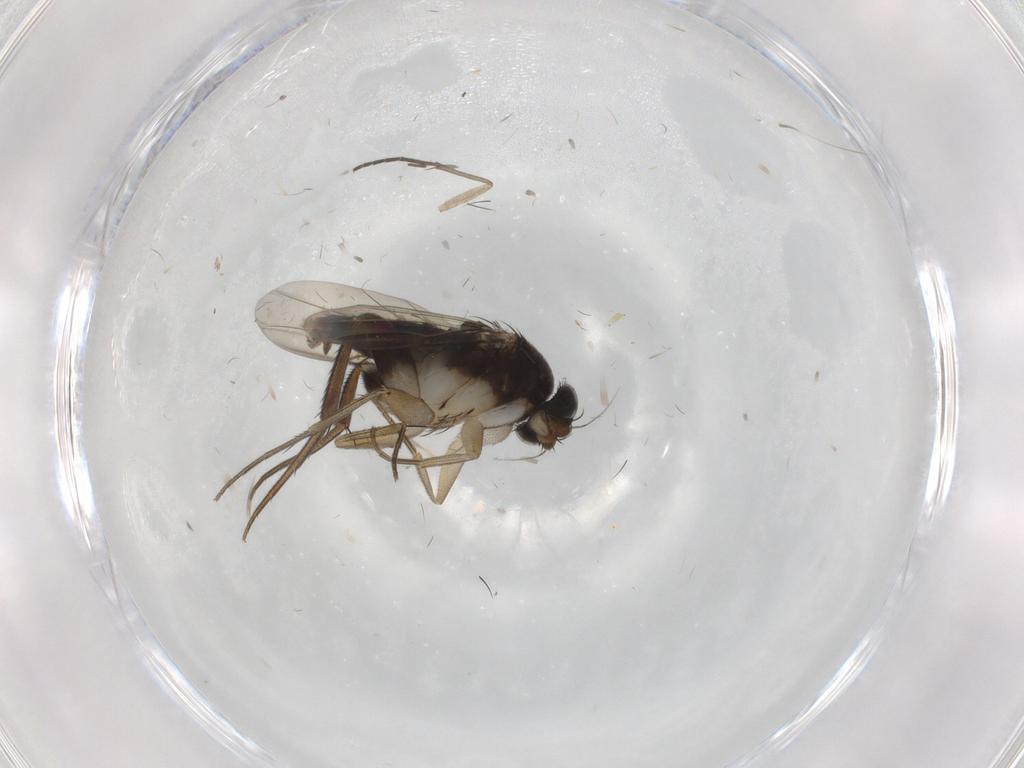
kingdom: Animalia
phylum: Arthropoda
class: Insecta
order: Diptera
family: Phoridae
